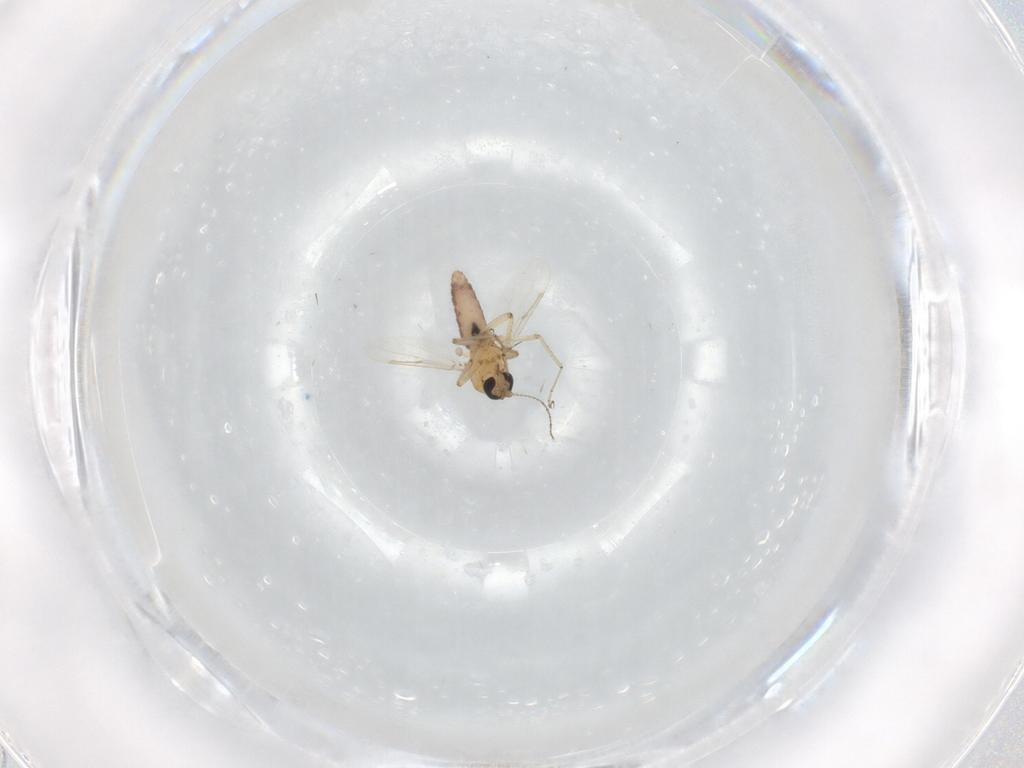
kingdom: Animalia
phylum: Arthropoda
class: Insecta
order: Diptera
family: Ceratopogonidae
